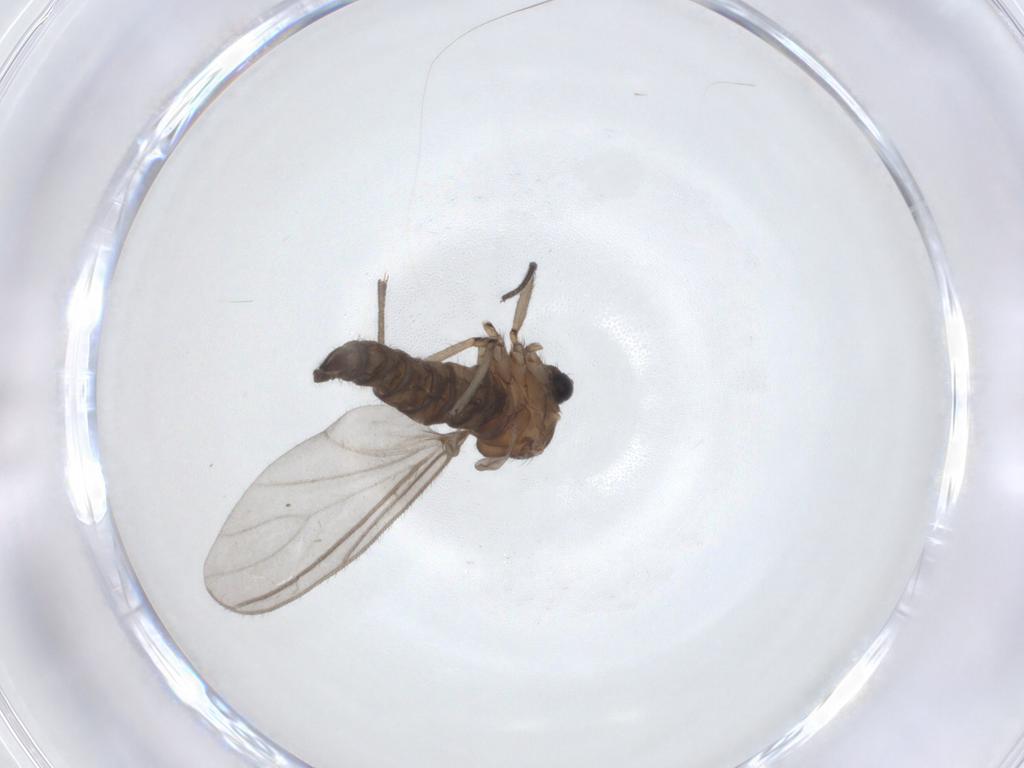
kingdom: Animalia
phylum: Arthropoda
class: Insecta
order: Diptera
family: Sciaridae
